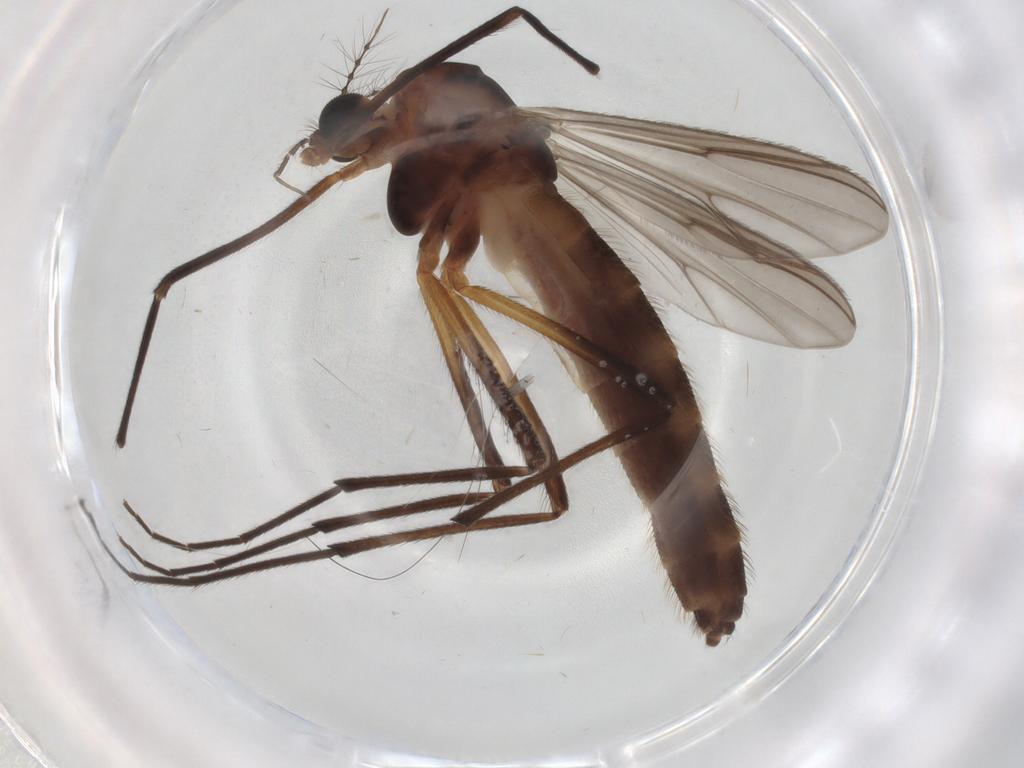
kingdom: Animalia
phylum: Arthropoda
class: Insecta
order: Diptera
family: Chironomidae
